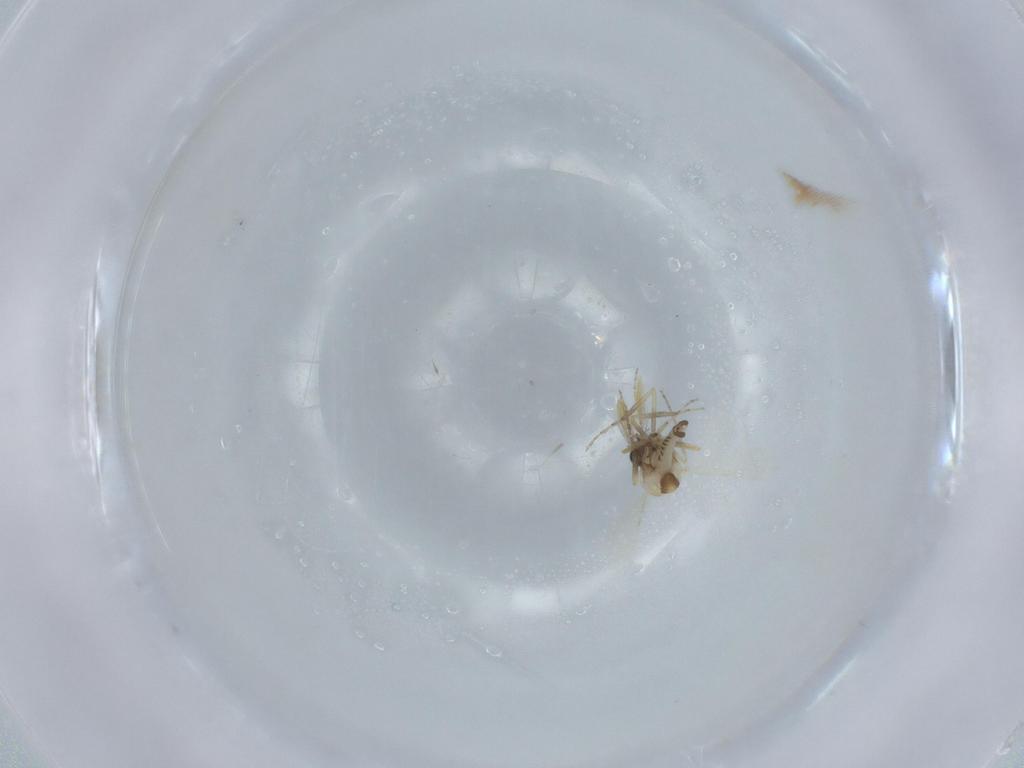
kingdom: Animalia
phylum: Arthropoda
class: Insecta
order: Diptera
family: Ceratopogonidae
